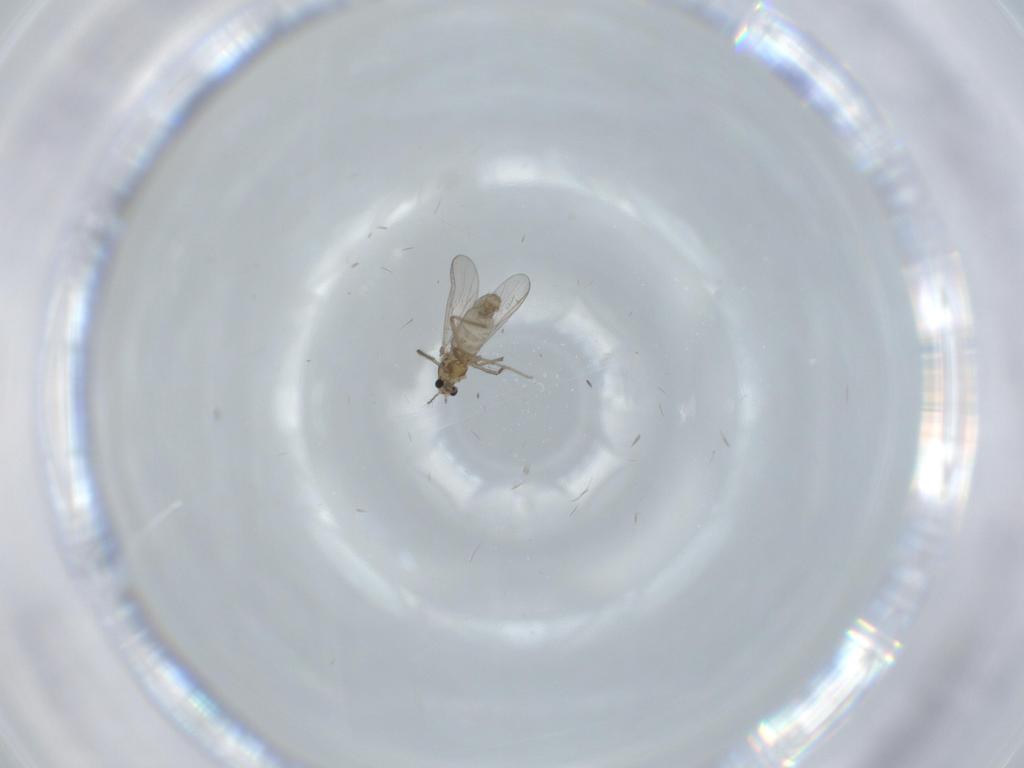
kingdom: Animalia
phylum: Arthropoda
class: Insecta
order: Diptera
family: Chironomidae
